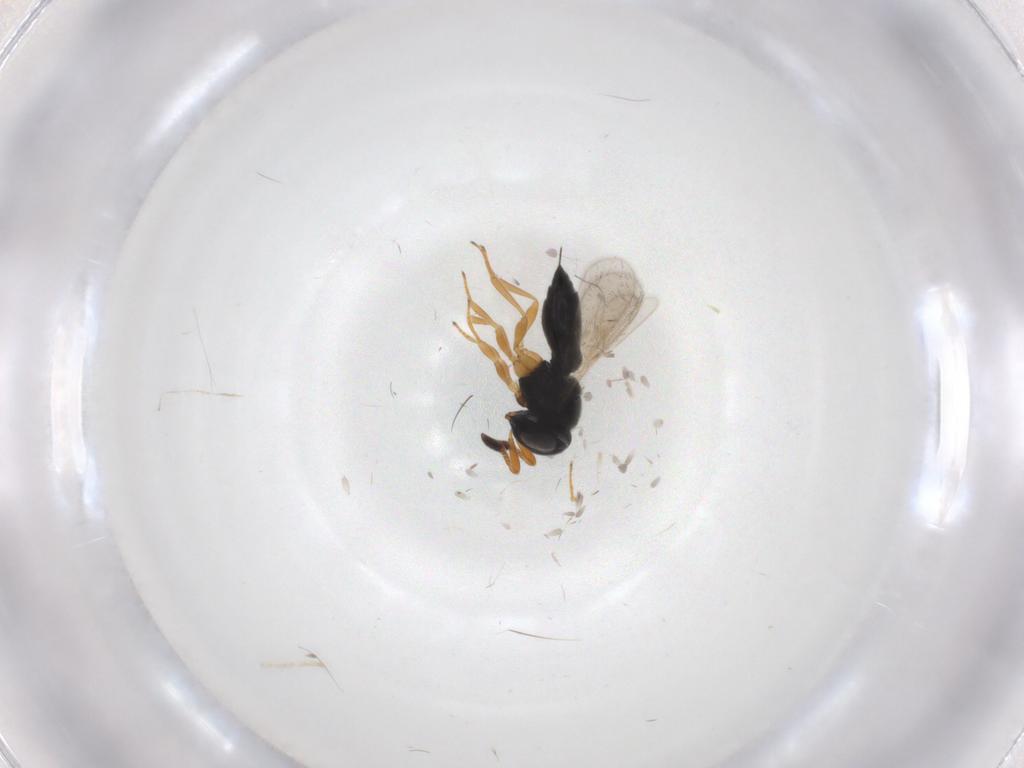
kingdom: Animalia
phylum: Arthropoda
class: Insecta
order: Hymenoptera
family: Scelionidae
